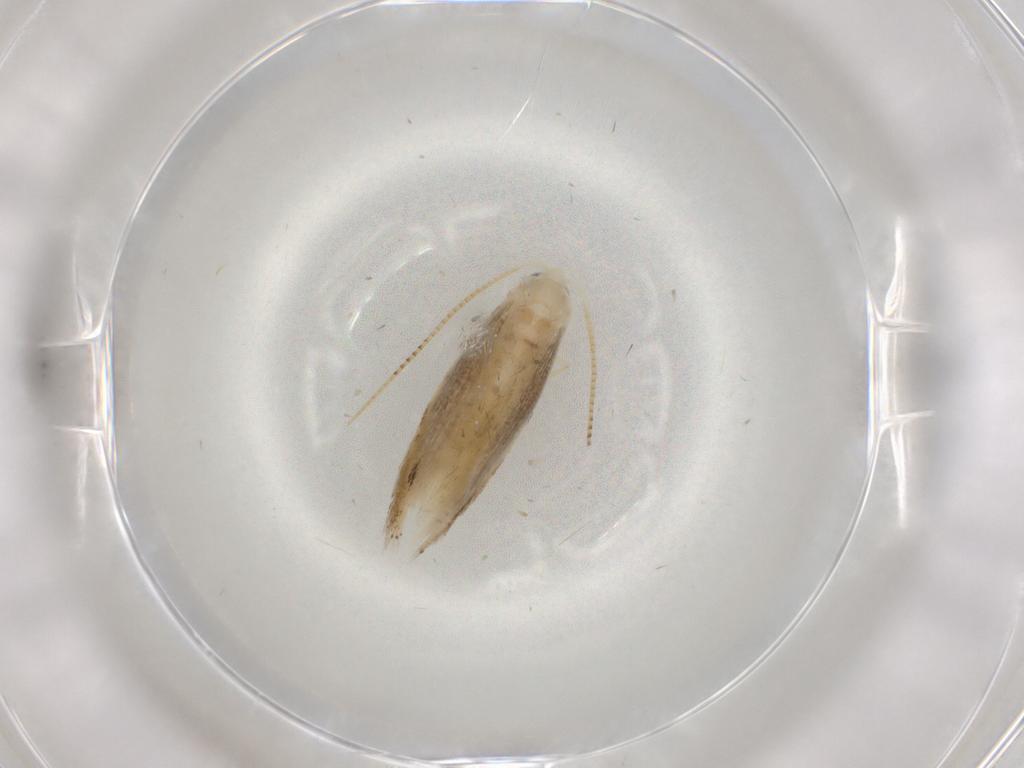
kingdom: Animalia
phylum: Arthropoda
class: Insecta
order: Lepidoptera
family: Bucculatricidae
